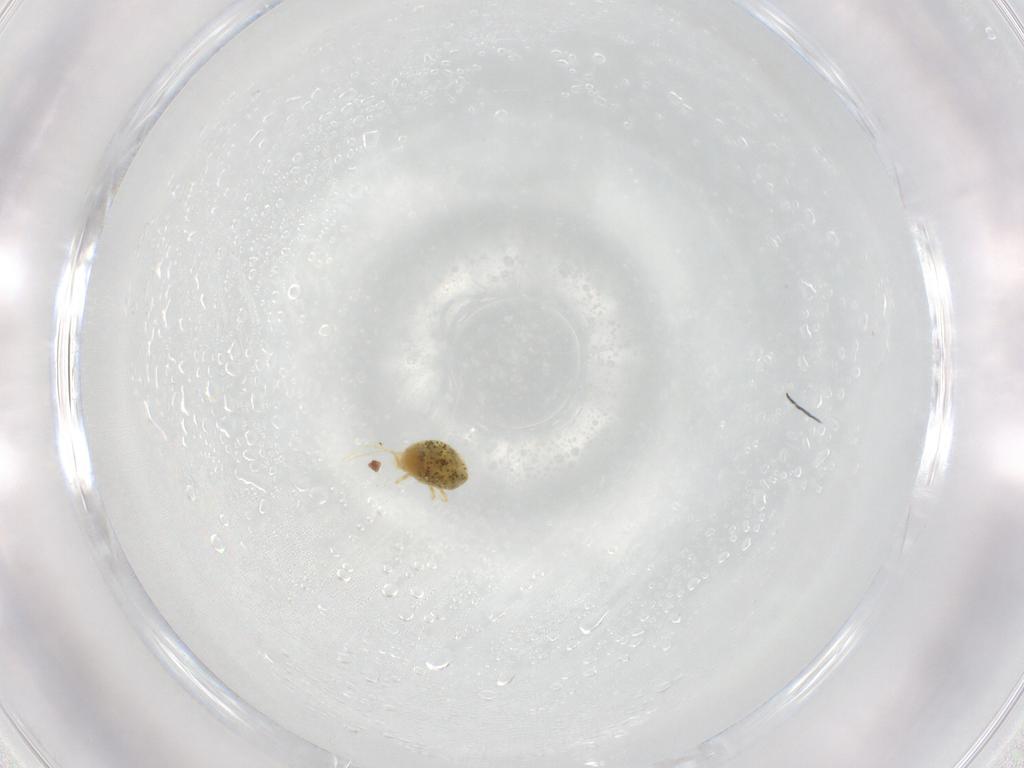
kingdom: Animalia
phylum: Arthropoda
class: Arachnida
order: Trombidiformes
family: Tetranychidae
